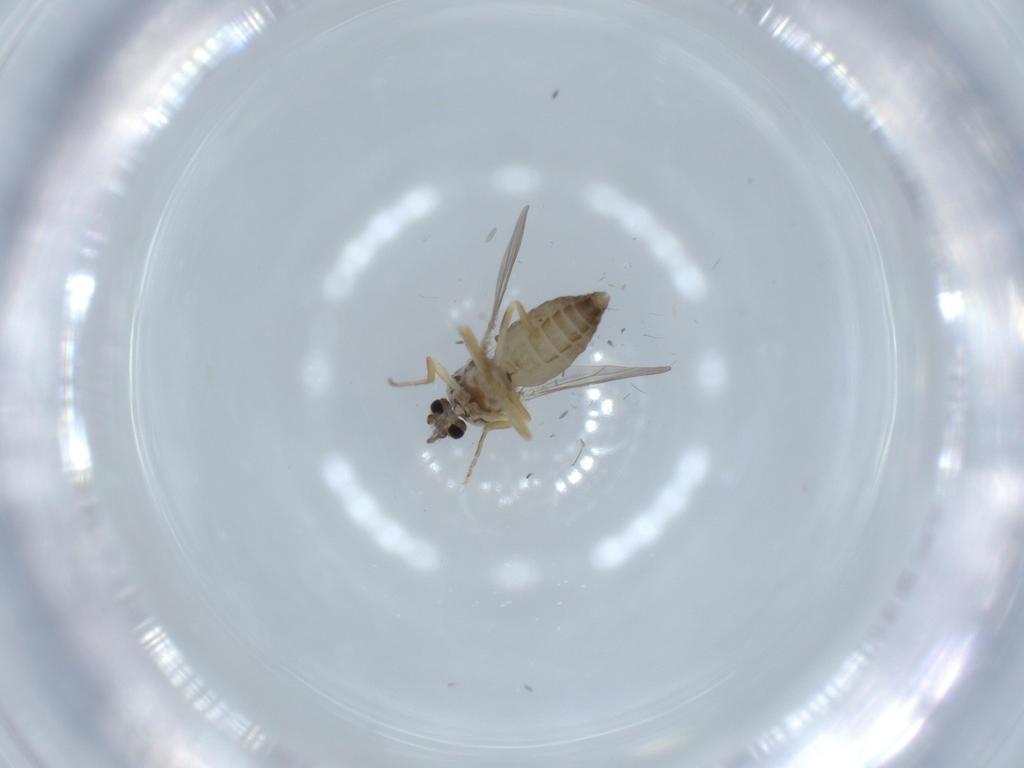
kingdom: Animalia
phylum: Arthropoda
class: Insecta
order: Diptera
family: Ceratopogonidae
